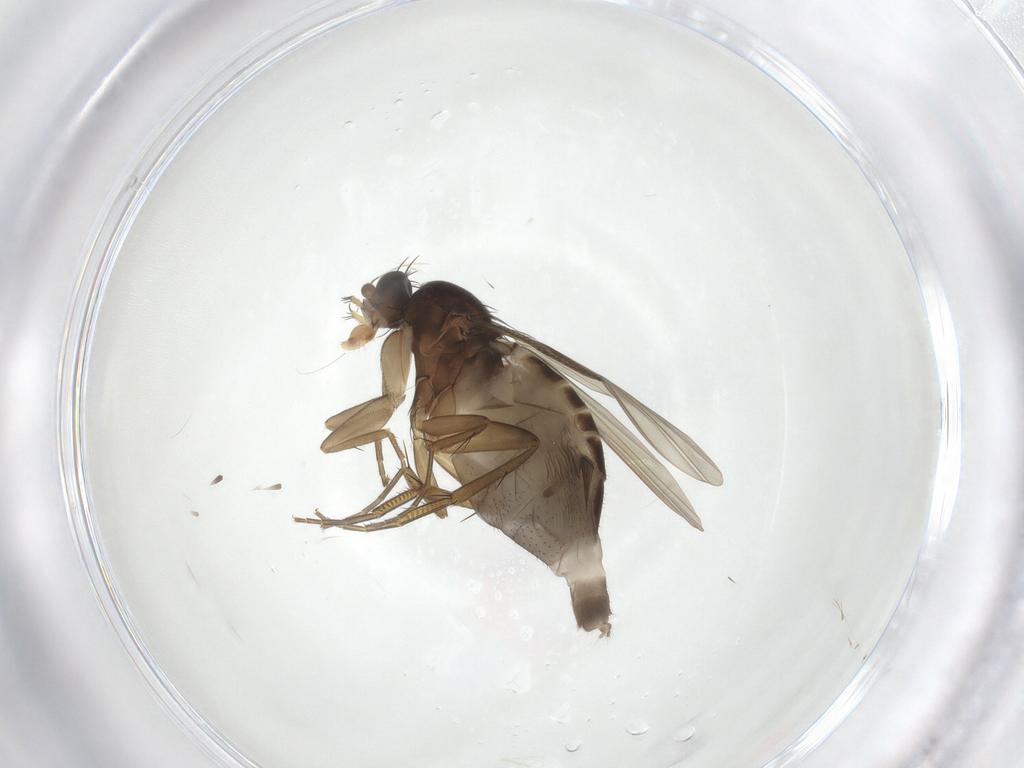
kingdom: Animalia
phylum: Arthropoda
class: Insecta
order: Diptera
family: Phoridae
